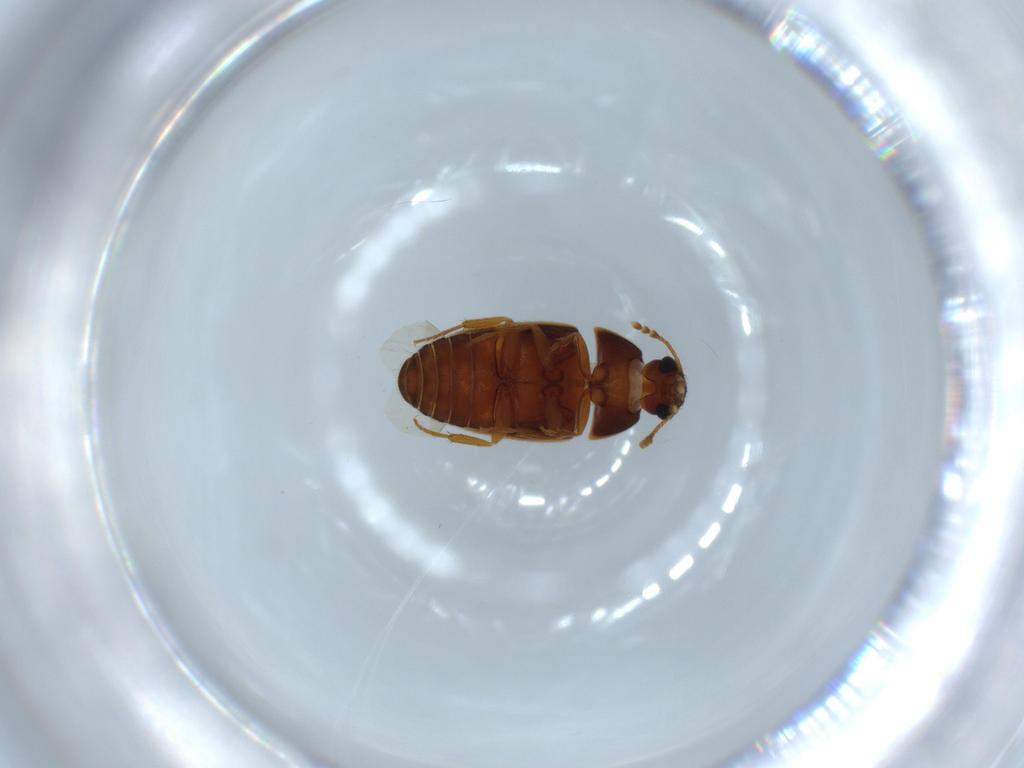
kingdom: Animalia
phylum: Arthropoda
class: Insecta
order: Coleoptera
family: Mycetophagidae
